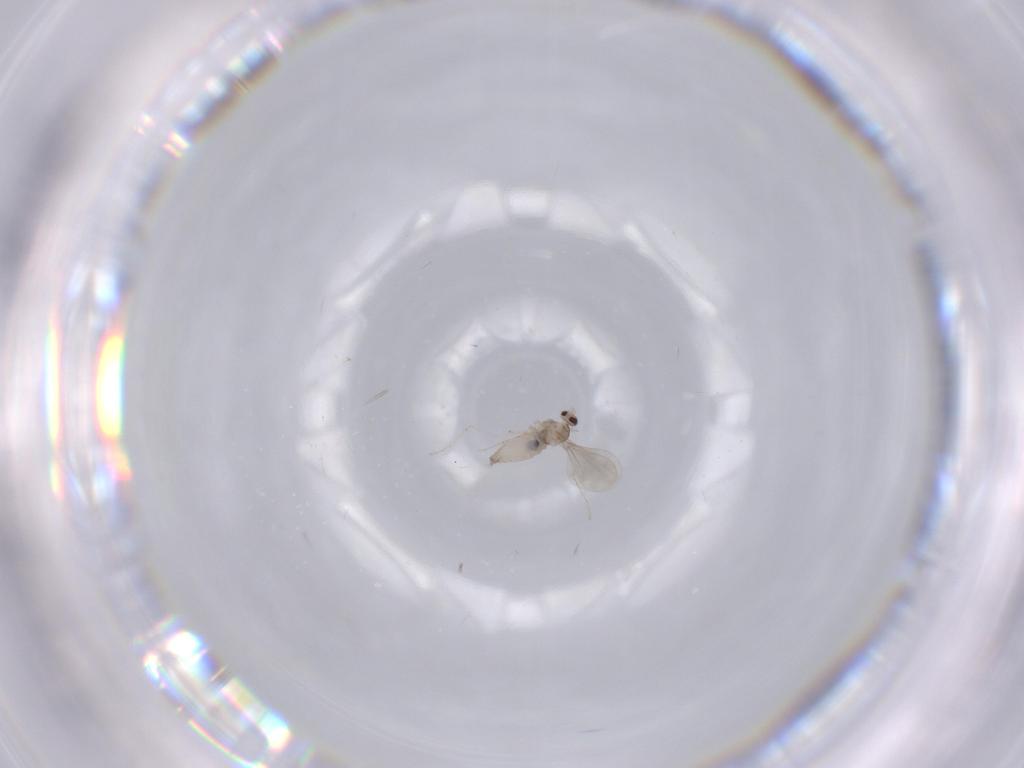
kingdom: Animalia
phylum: Arthropoda
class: Insecta
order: Diptera
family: Cecidomyiidae
